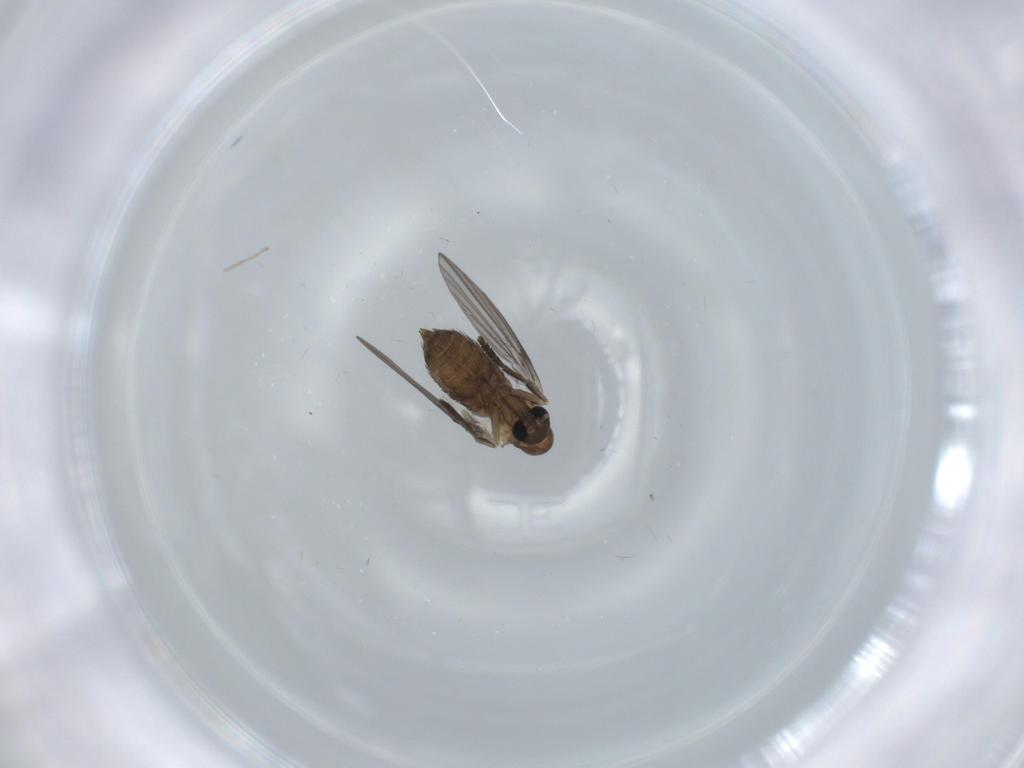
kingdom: Animalia
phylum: Arthropoda
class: Insecta
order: Diptera
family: Psychodidae
